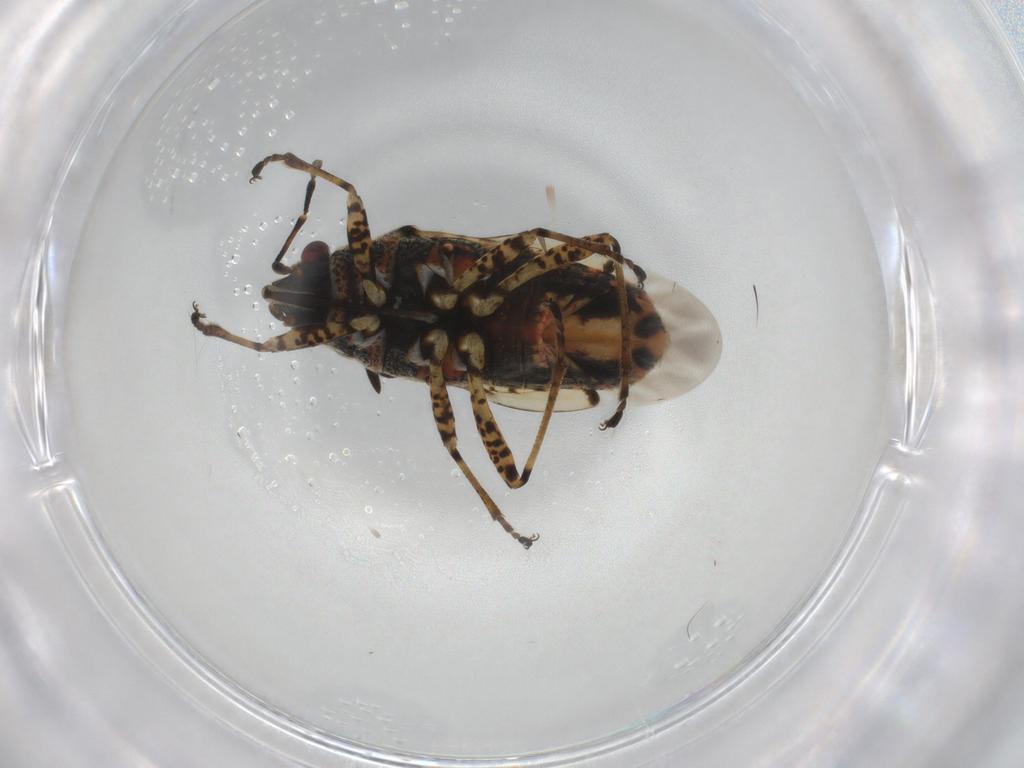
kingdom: Animalia
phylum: Arthropoda
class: Insecta
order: Hemiptera
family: Lygaeidae
